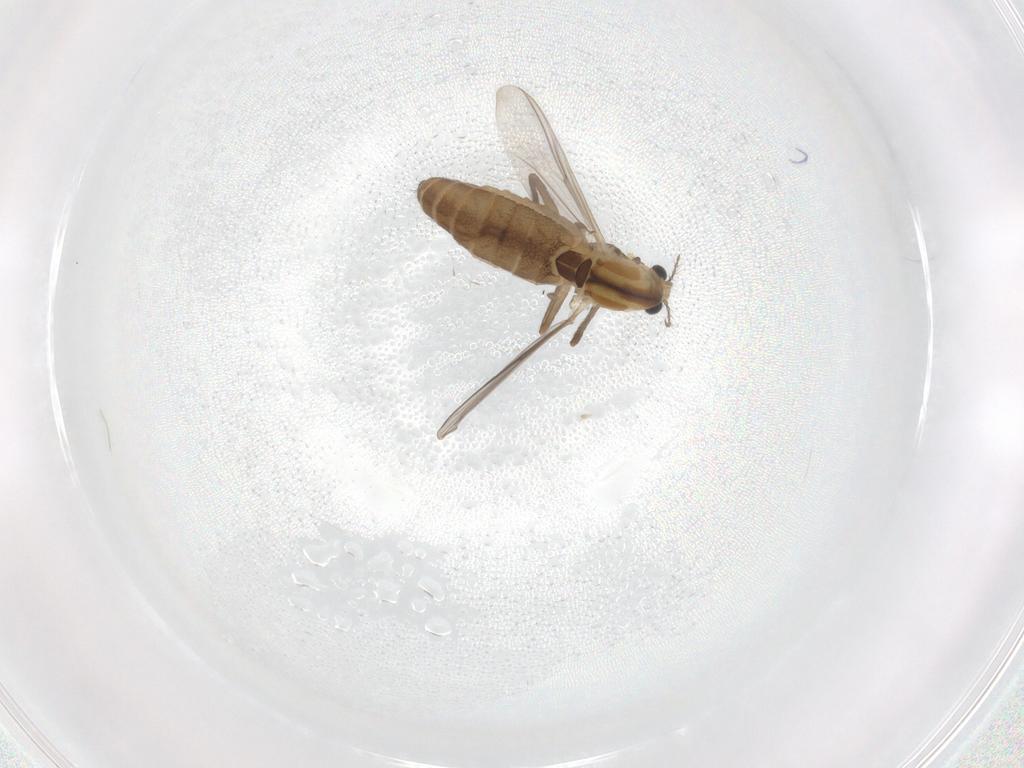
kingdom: Animalia
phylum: Arthropoda
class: Insecta
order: Diptera
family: Chironomidae
